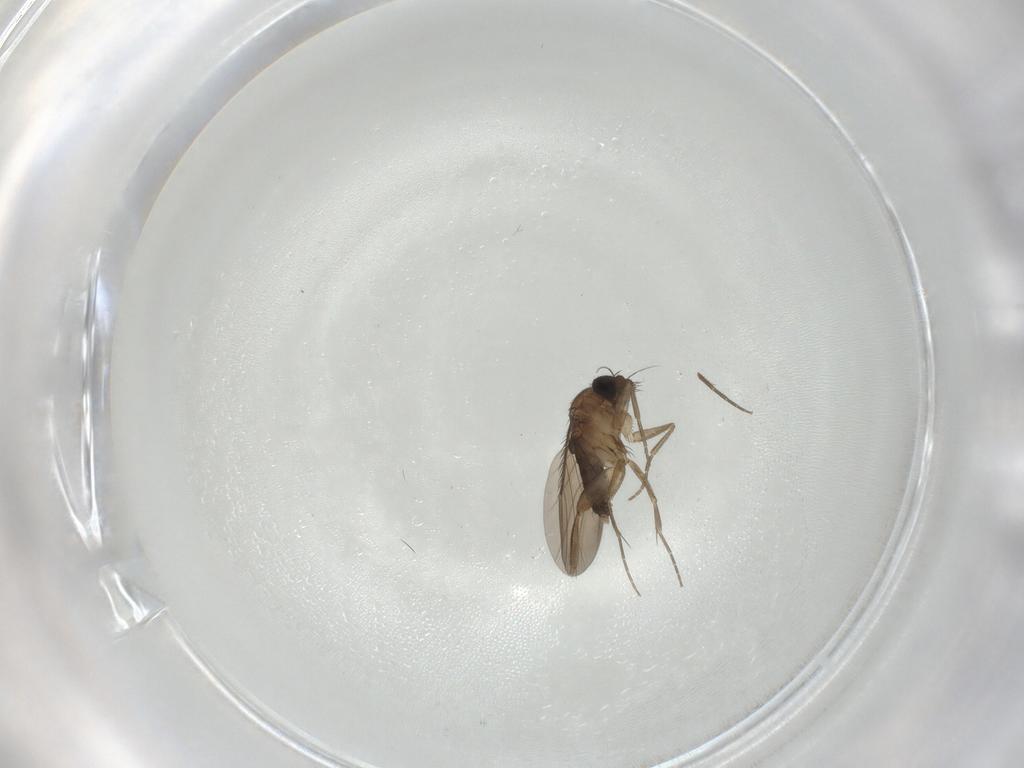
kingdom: Animalia
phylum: Arthropoda
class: Insecta
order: Diptera
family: Phoridae
